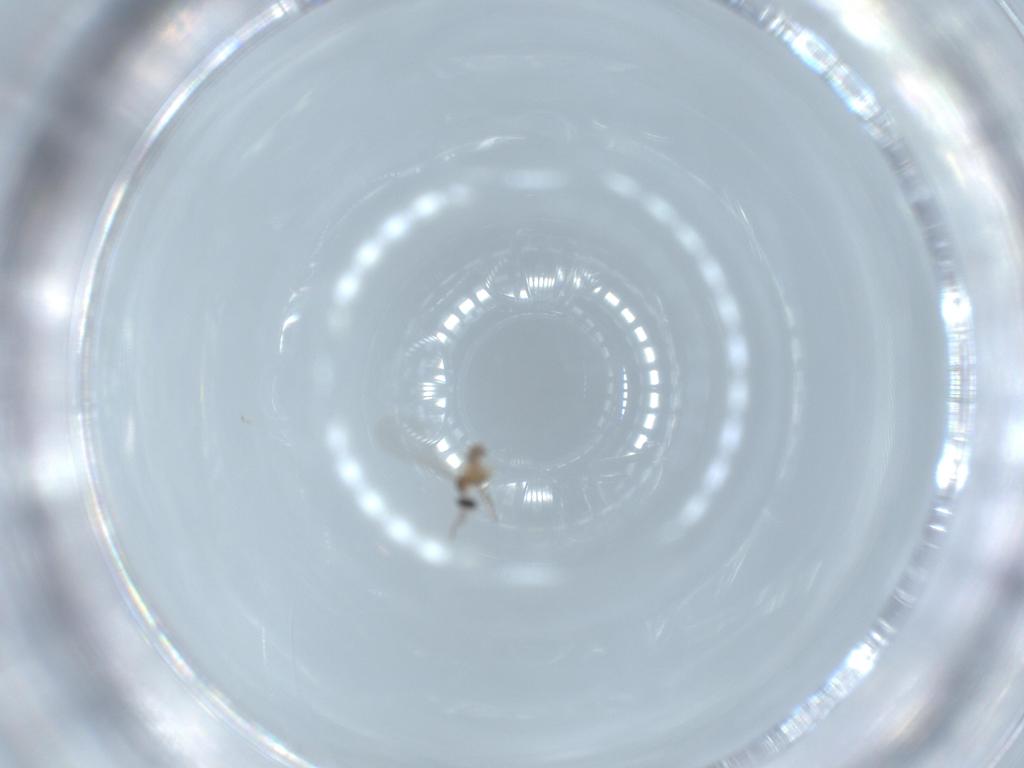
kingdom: Animalia
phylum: Arthropoda
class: Insecta
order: Diptera
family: Cecidomyiidae
